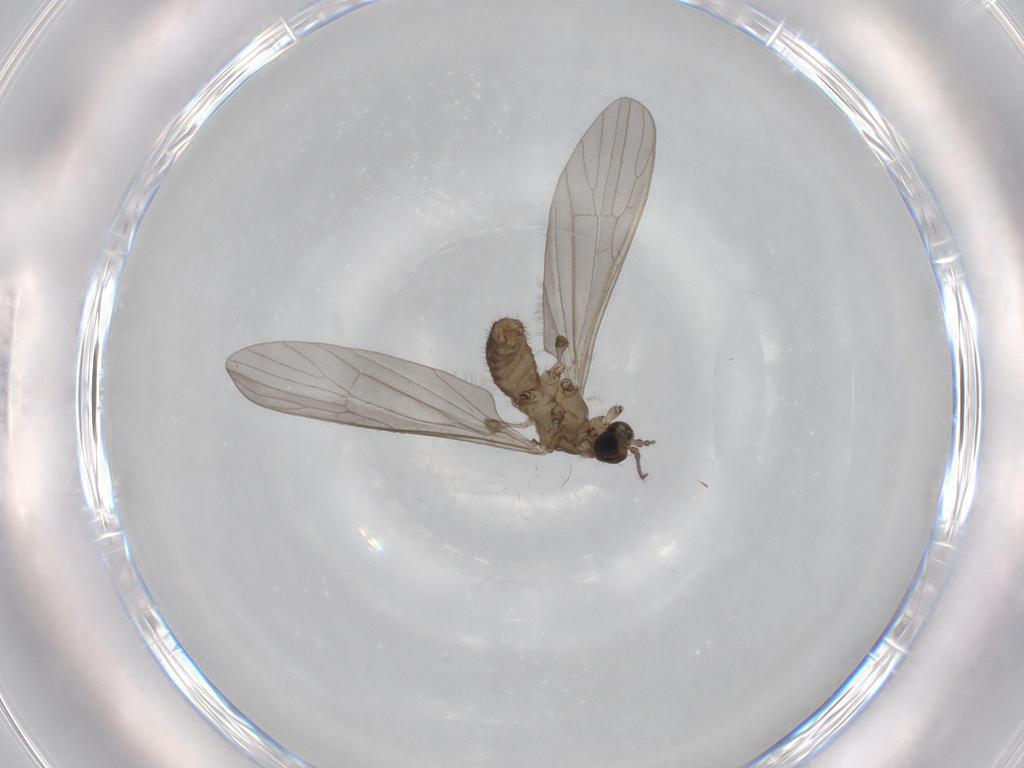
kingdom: Animalia
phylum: Arthropoda
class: Insecta
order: Diptera
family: Limoniidae
